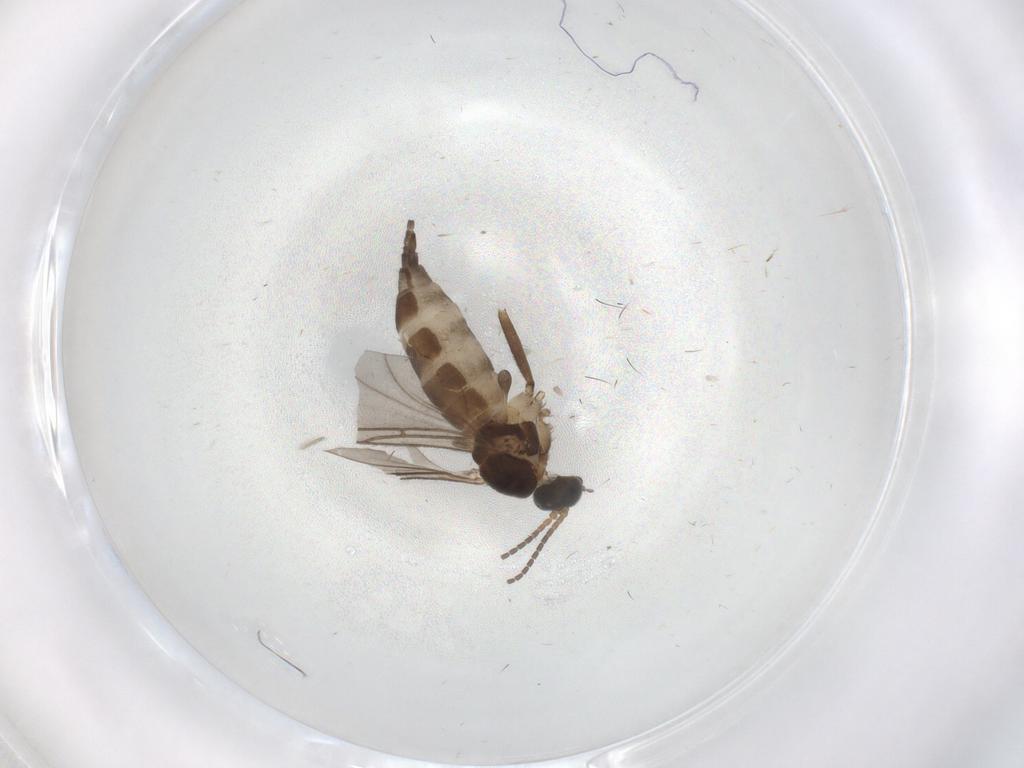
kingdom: Animalia
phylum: Arthropoda
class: Insecta
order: Diptera
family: Sciaridae
